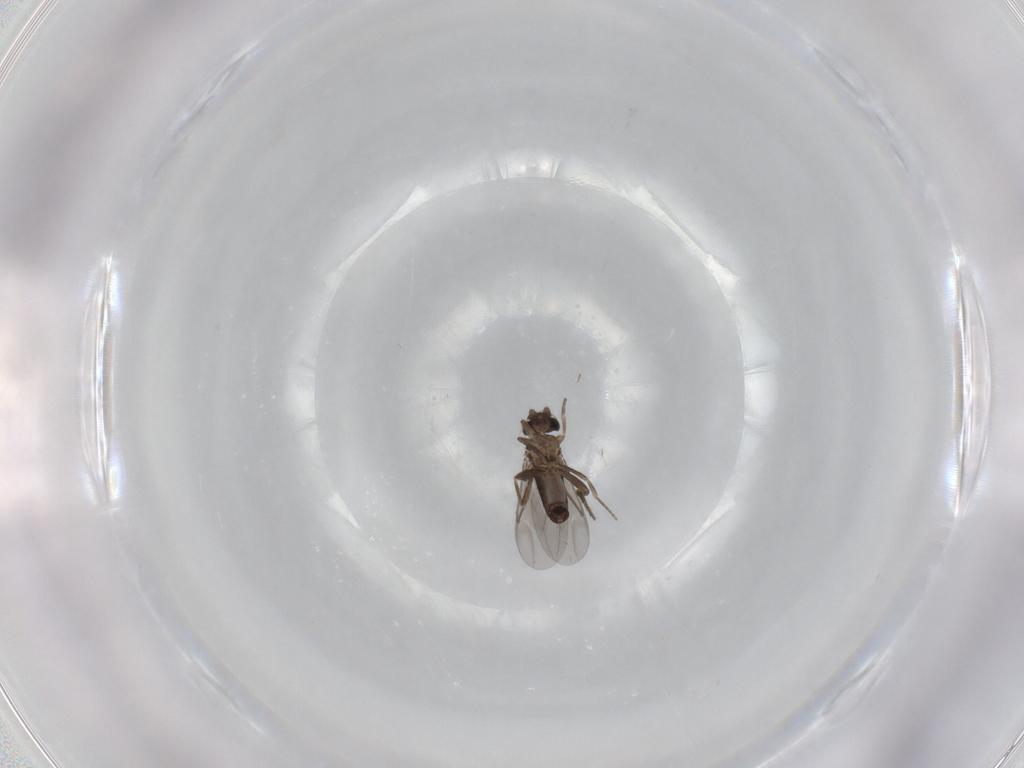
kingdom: Animalia
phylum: Arthropoda
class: Insecta
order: Diptera
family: Phoridae
